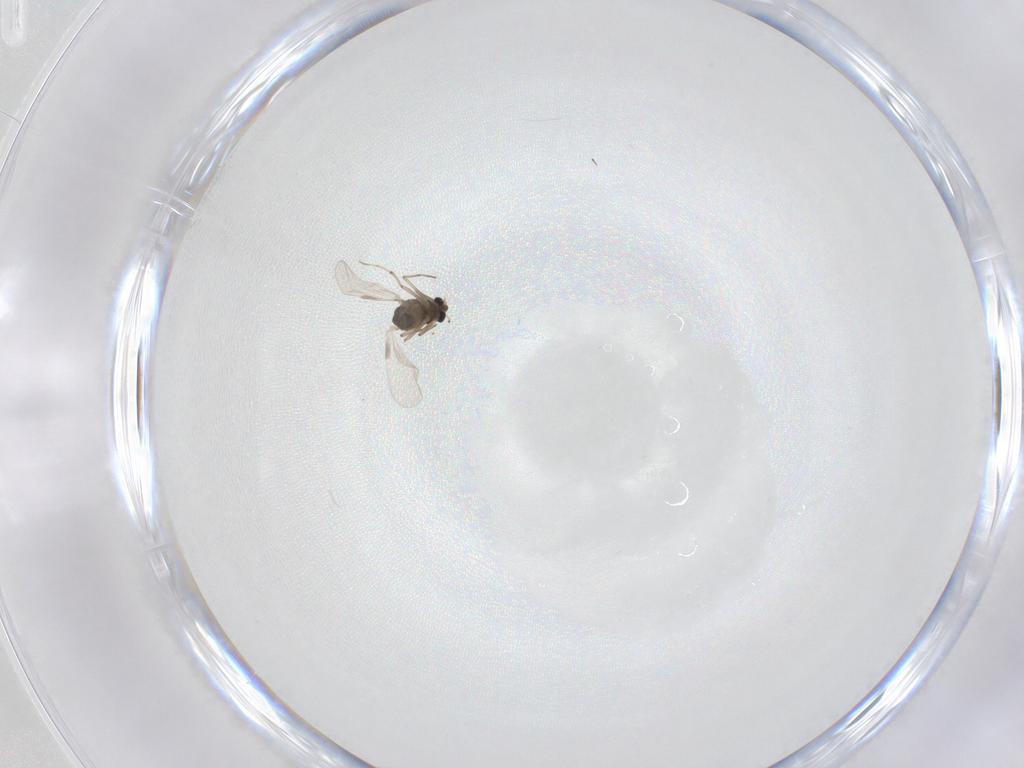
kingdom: Animalia
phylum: Arthropoda
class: Insecta
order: Diptera
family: Chironomidae
